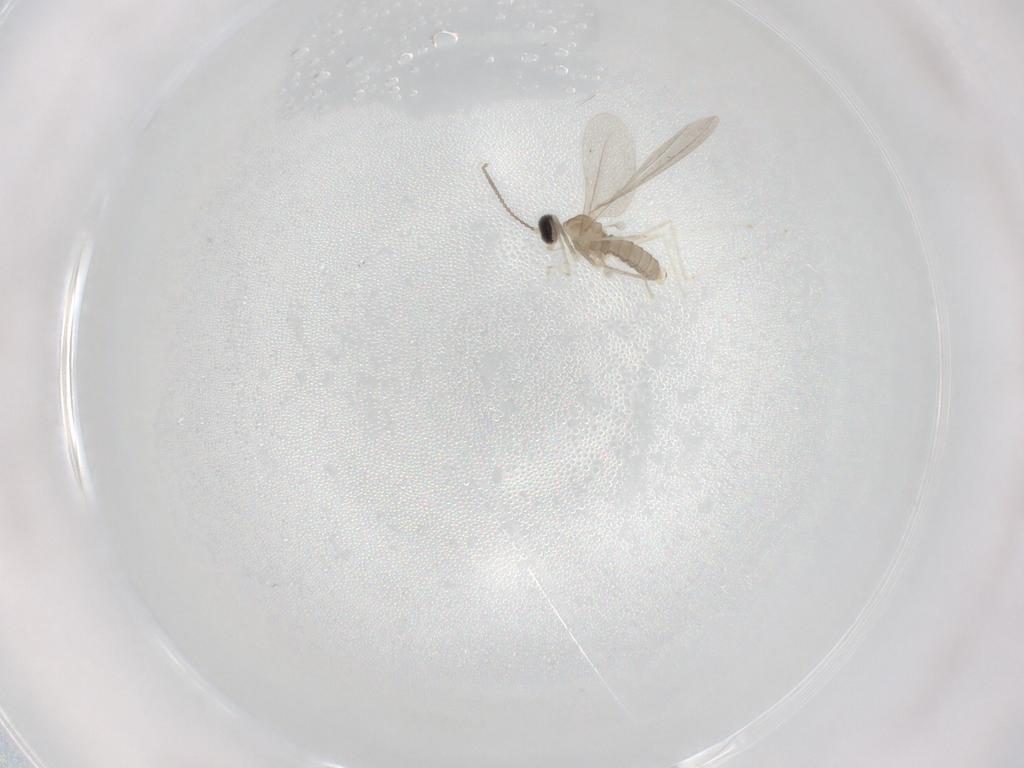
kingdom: Animalia
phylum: Arthropoda
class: Insecta
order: Diptera
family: Cecidomyiidae
